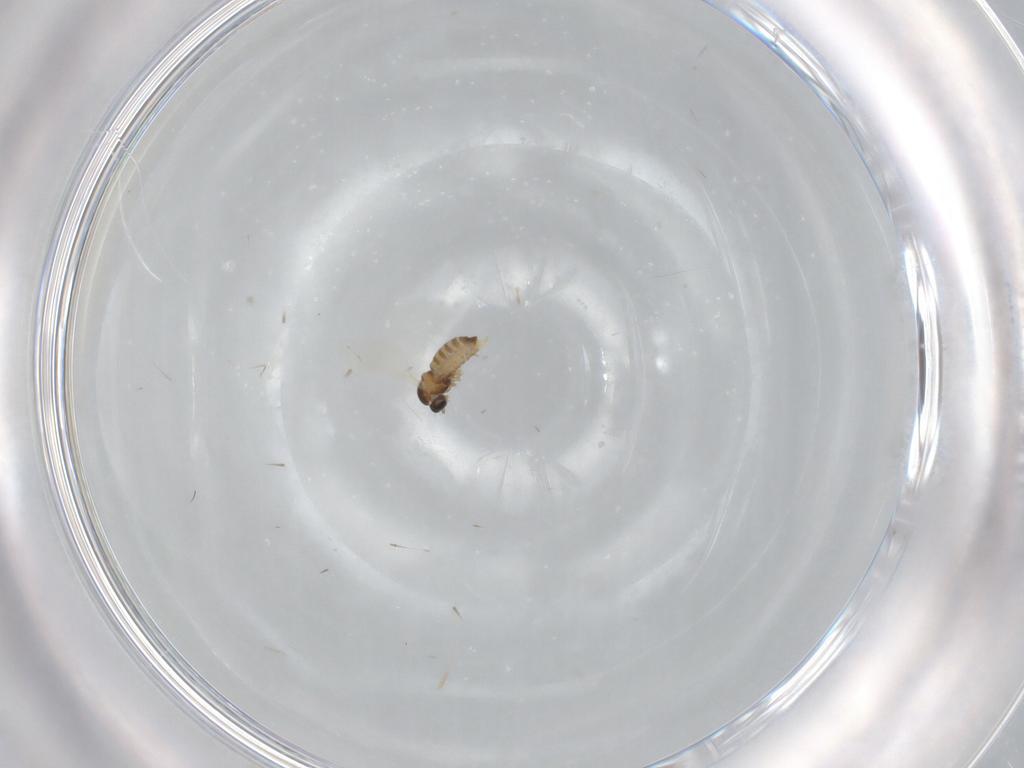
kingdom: Animalia
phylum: Arthropoda
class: Insecta
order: Diptera
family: Cecidomyiidae
